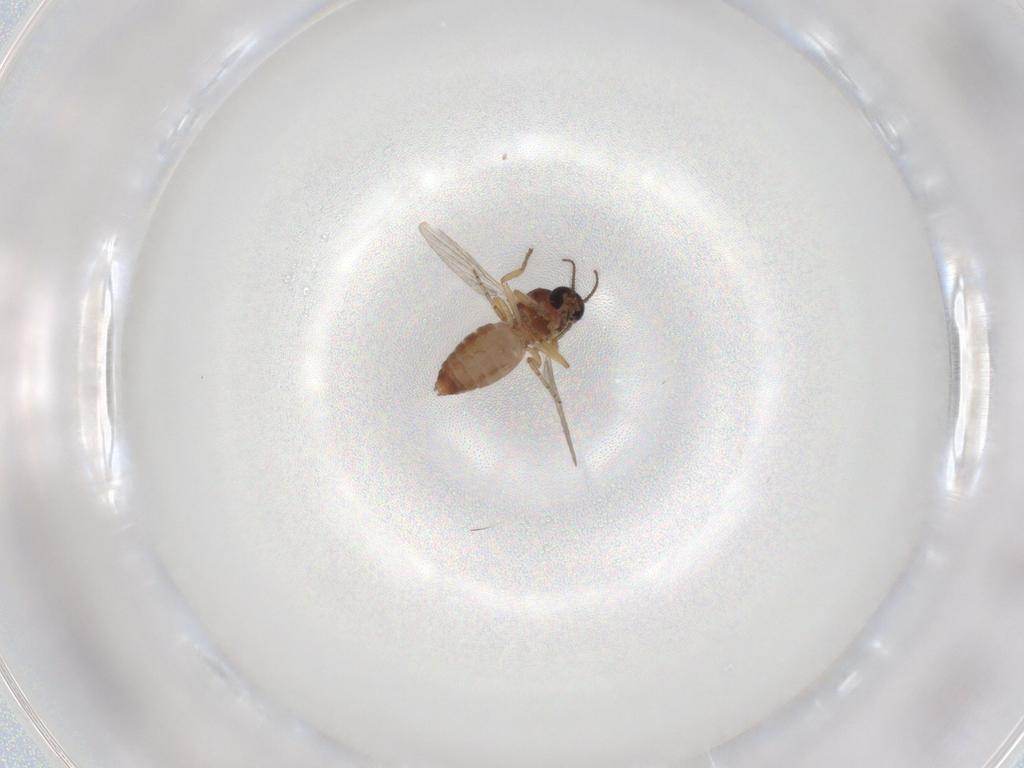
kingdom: Animalia
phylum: Arthropoda
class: Insecta
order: Diptera
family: Ceratopogonidae
